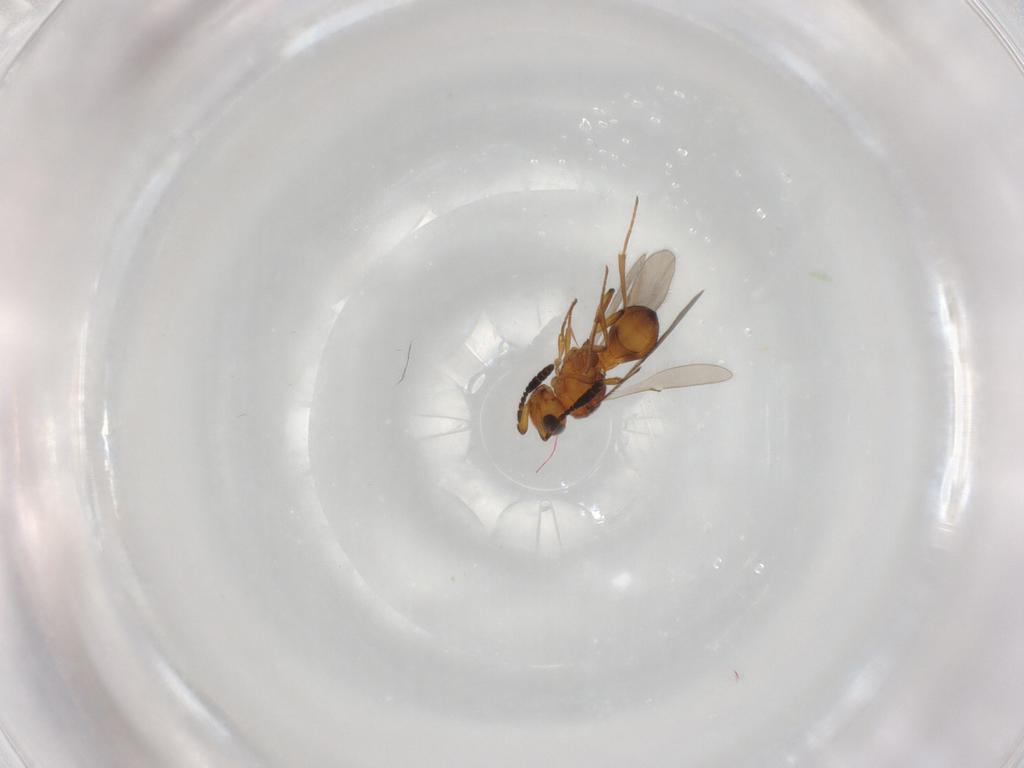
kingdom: Animalia
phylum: Arthropoda
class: Insecta
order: Hymenoptera
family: Scelionidae
